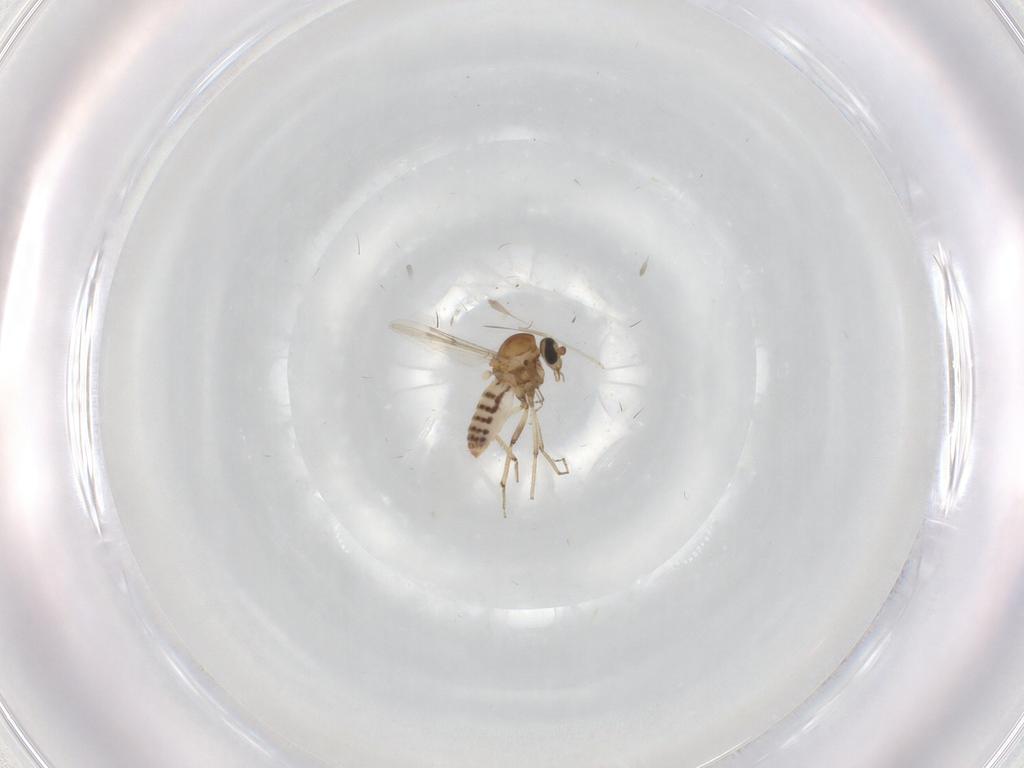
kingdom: Animalia
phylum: Arthropoda
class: Insecta
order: Diptera
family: Ceratopogonidae
